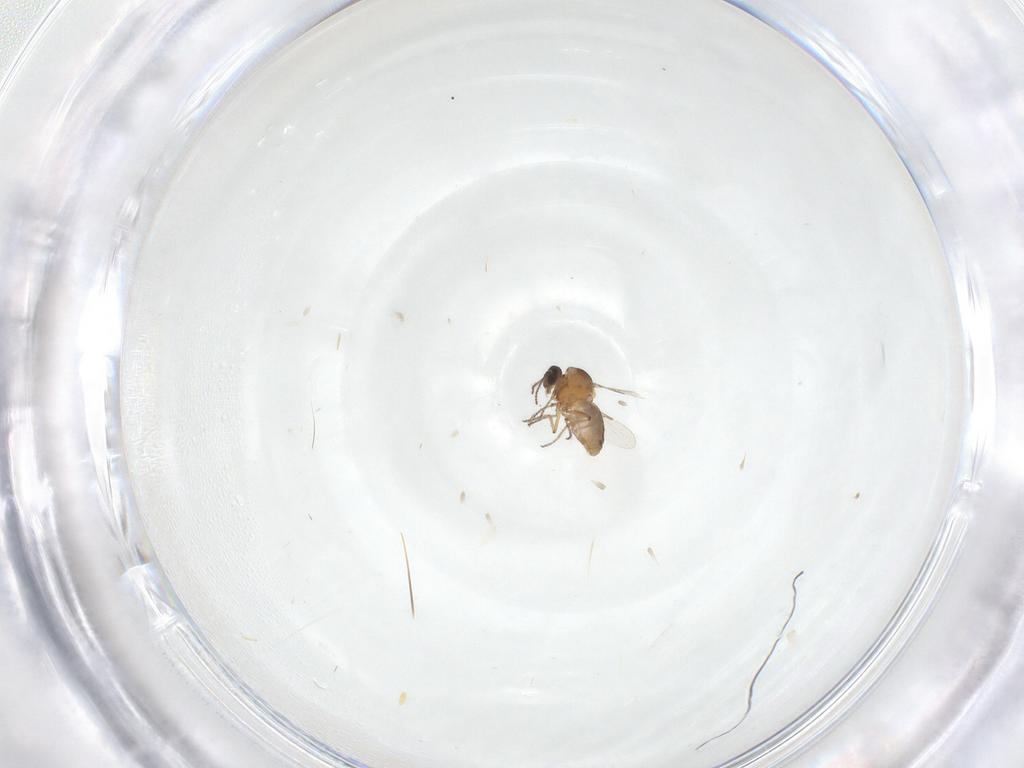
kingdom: Animalia
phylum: Arthropoda
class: Insecta
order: Diptera
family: Ceratopogonidae
